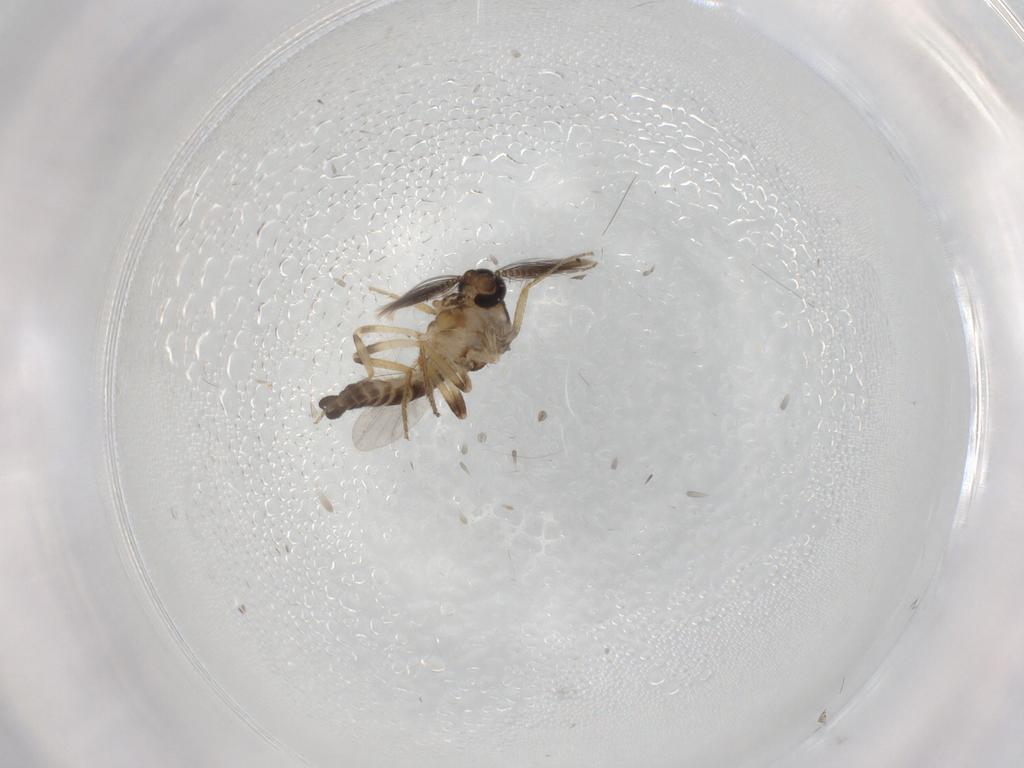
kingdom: Animalia
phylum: Arthropoda
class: Insecta
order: Diptera
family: Ceratopogonidae
